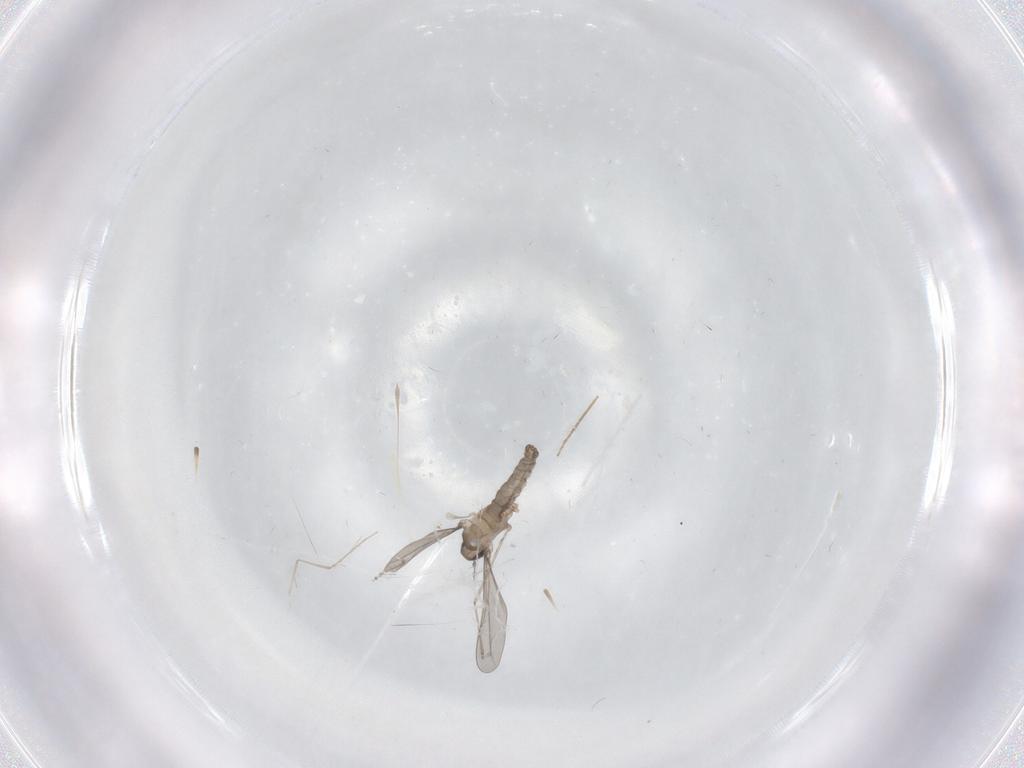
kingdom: Animalia
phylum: Arthropoda
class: Insecta
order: Diptera
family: Cecidomyiidae
